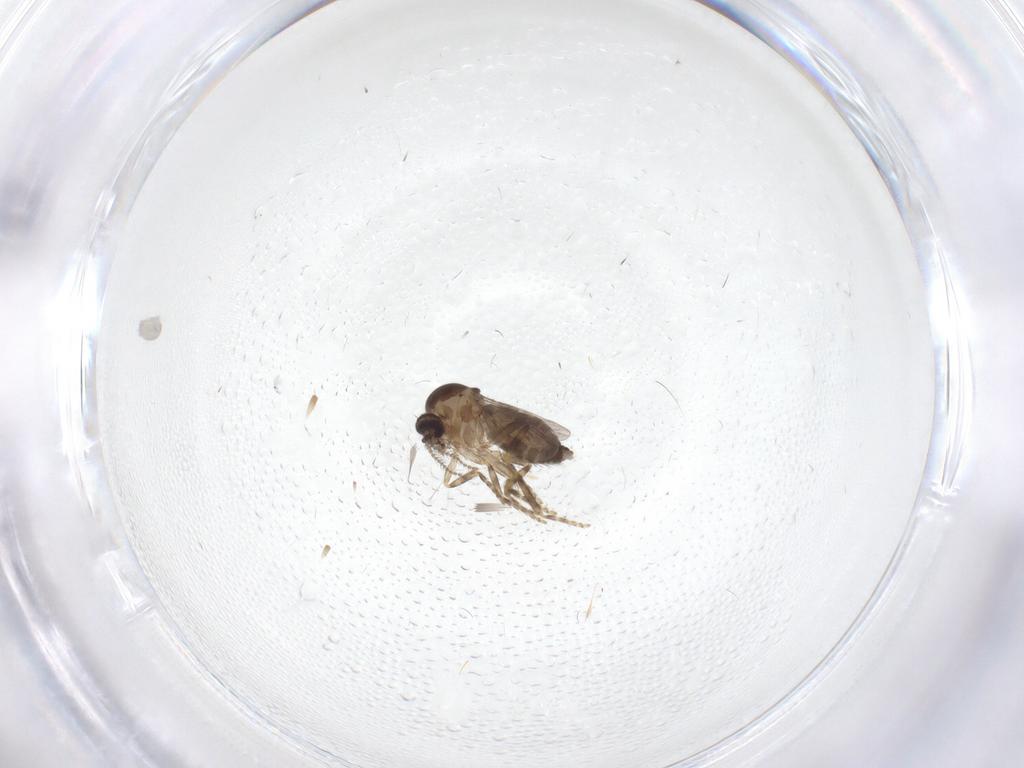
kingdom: Animalia
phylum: Arthropoda
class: Insecta
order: Diptera
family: Ceratopogonidae
